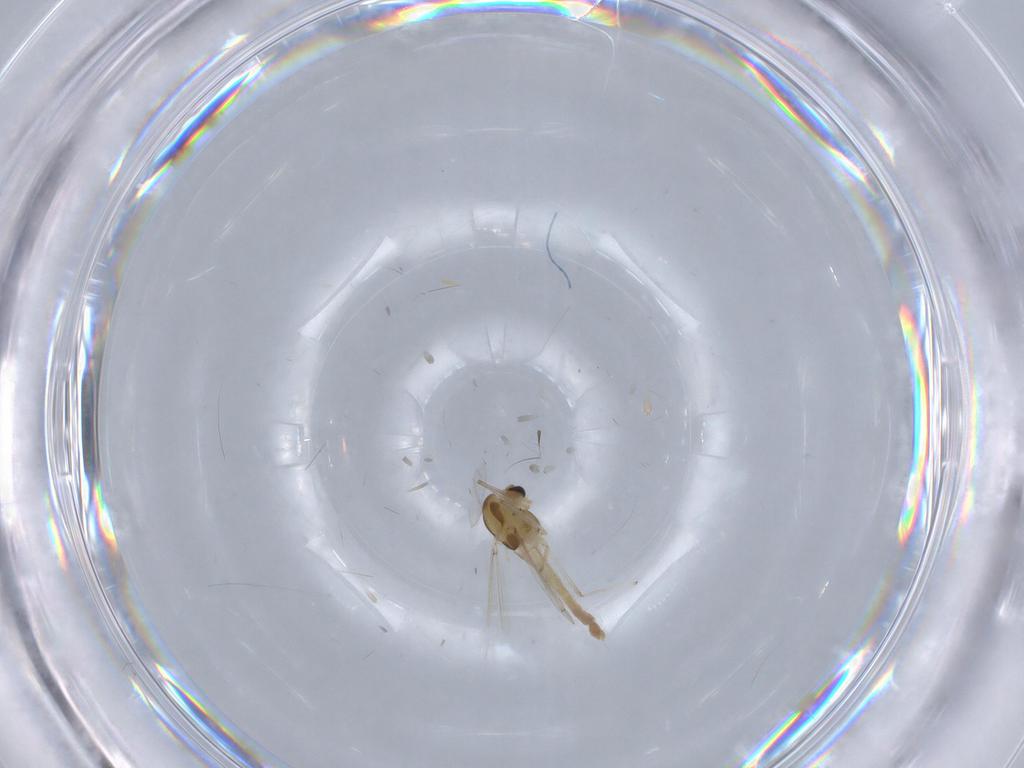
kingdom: Animalia
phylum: Arthropoda
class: Insecta
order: Diptera
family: Chironomidae
